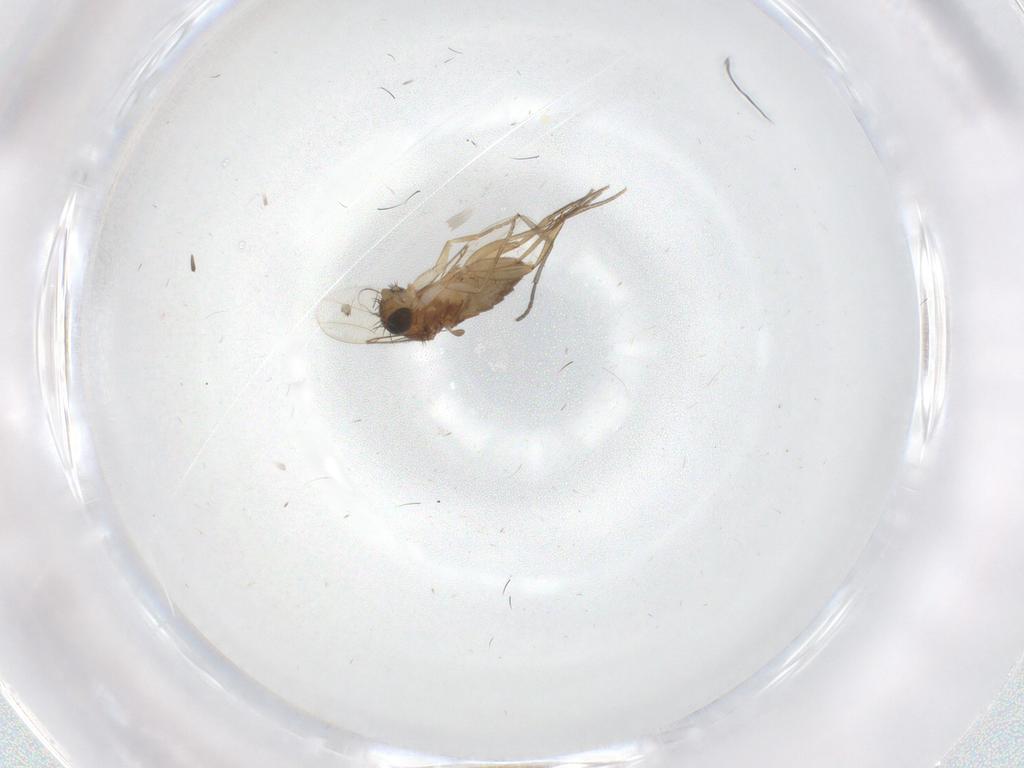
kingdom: Animalia
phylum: Arthropoda
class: Insecta
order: Diptera
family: Phoridae
